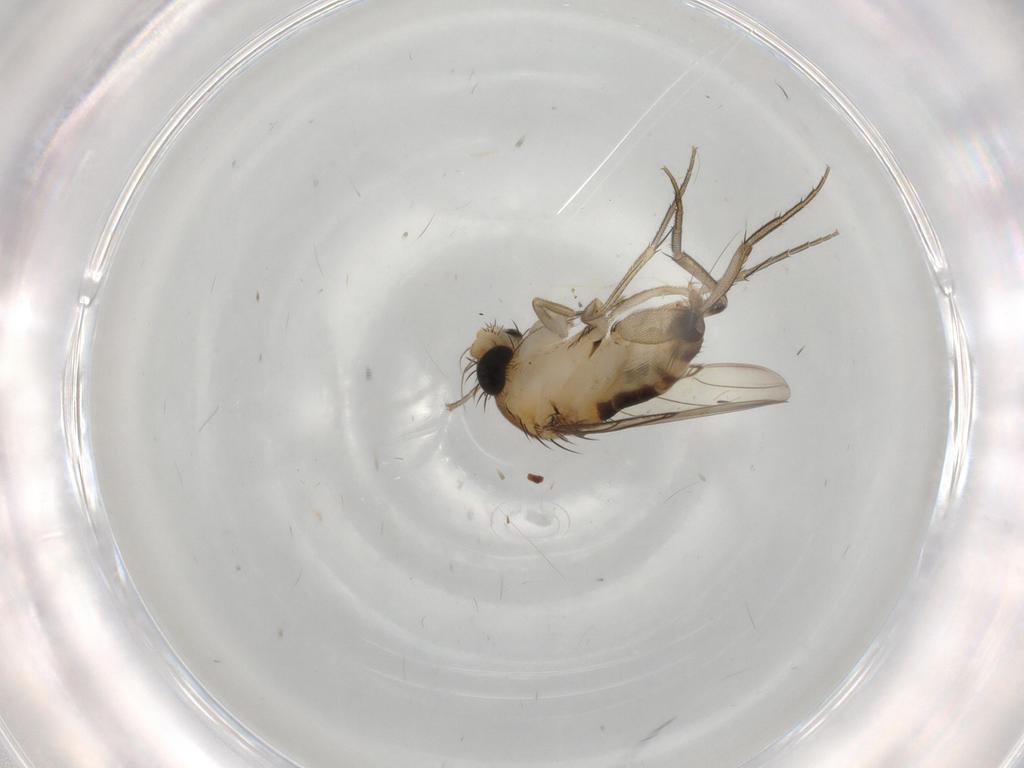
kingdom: Animalia
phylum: Arthropoda
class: Insecta
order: Diptera
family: Phoridae
